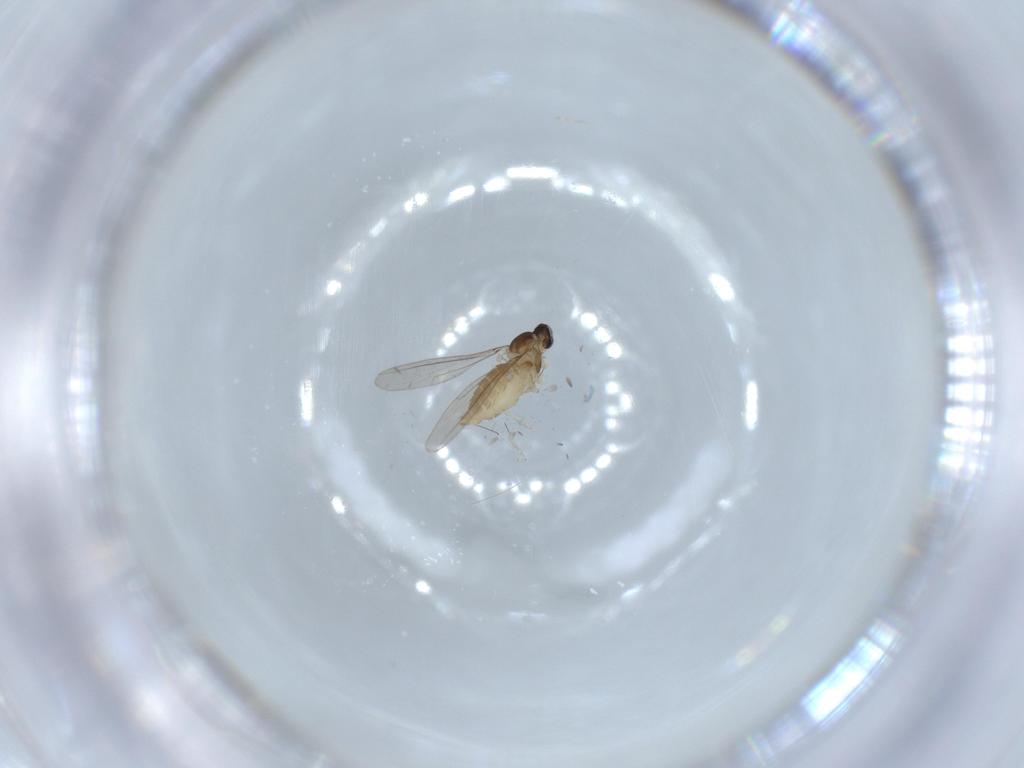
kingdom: Animalia
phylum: Arthropoda
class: Insecta
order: Diptera
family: Cecidomyiidae
